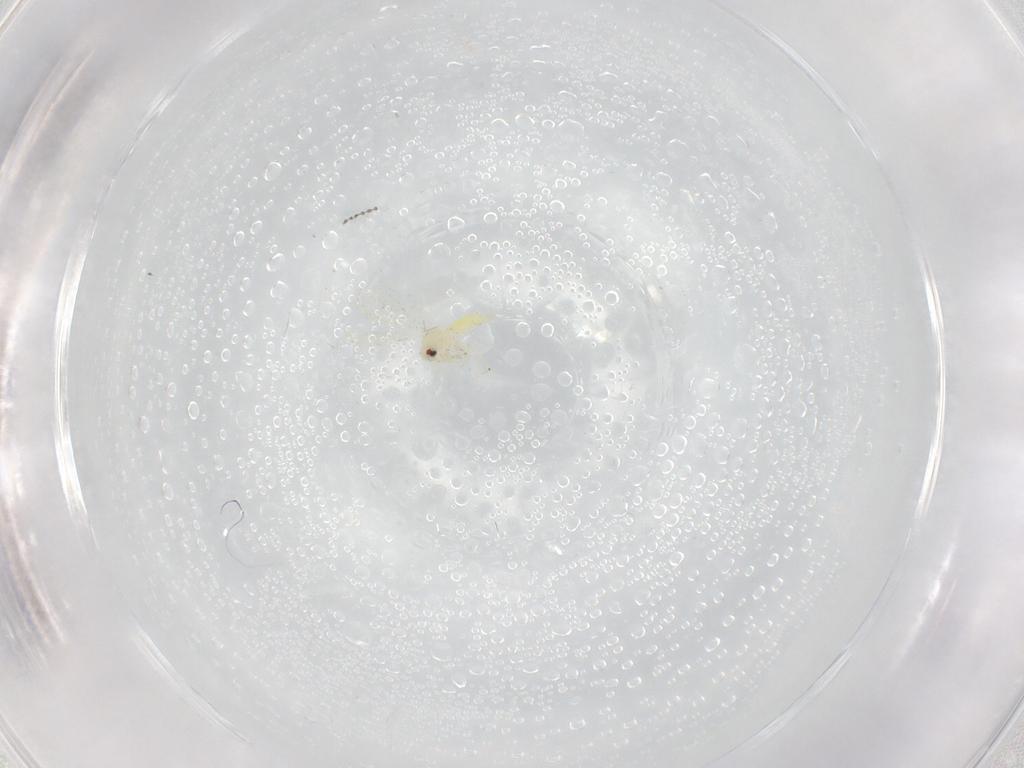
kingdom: Animalia
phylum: Arthropoda
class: Insecta
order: Hemiptera
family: Aleyrodidae
